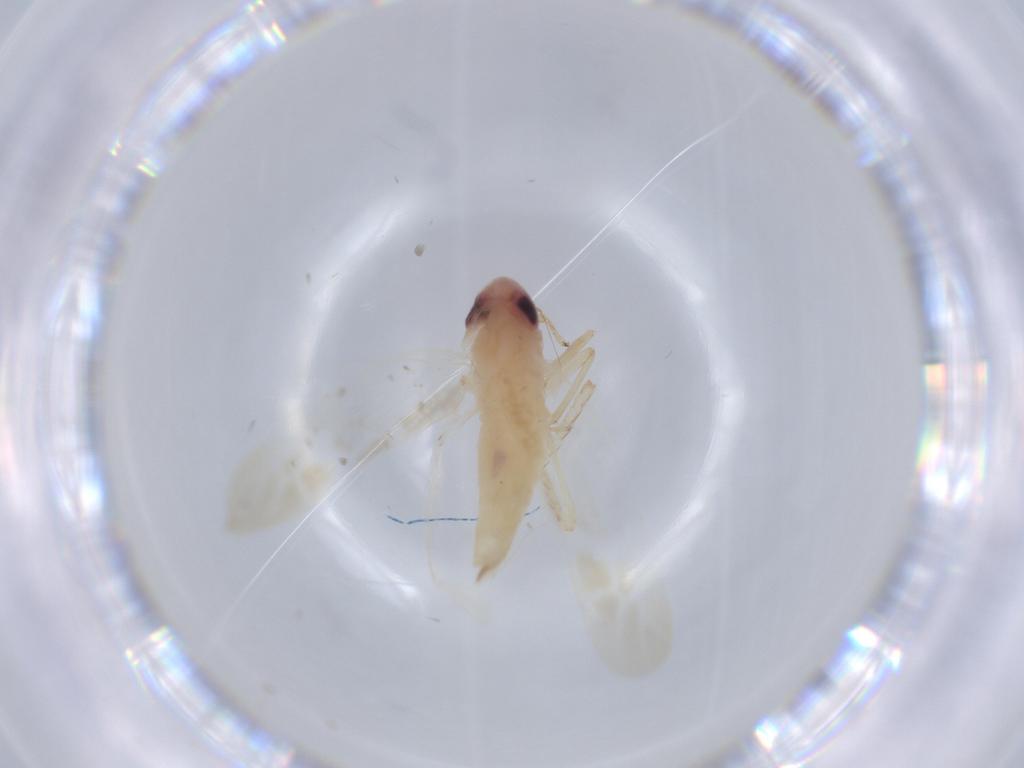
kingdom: Animalia
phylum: Arthropoda
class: Insecta
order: Hemiptera
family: Cicadellidae
